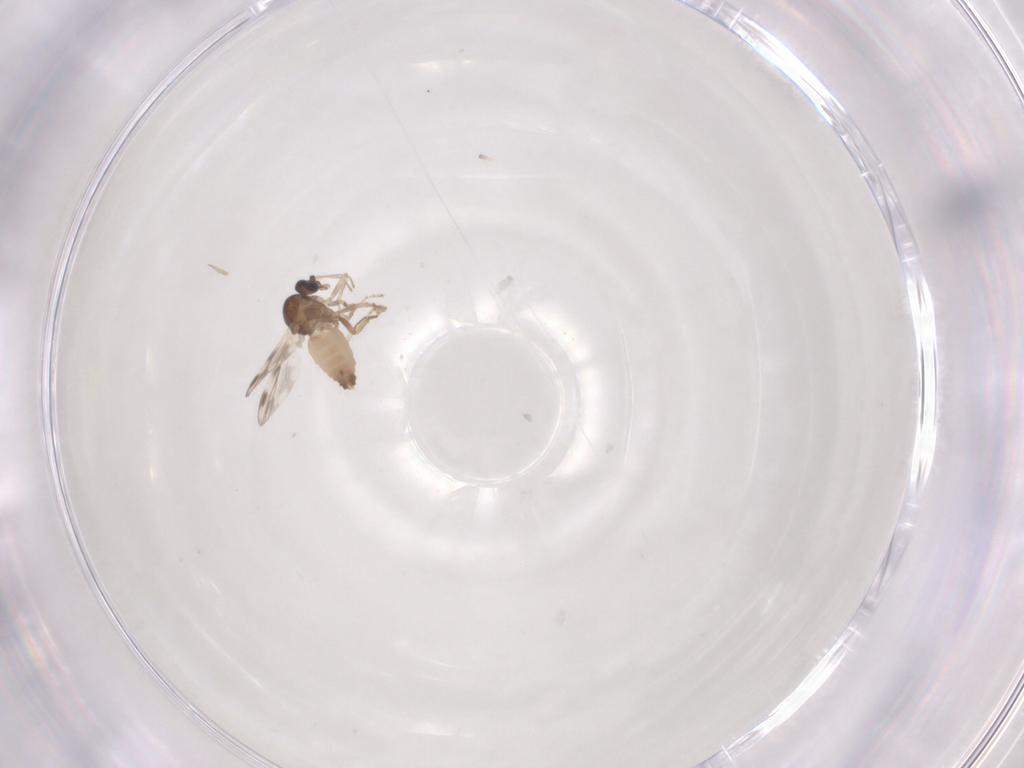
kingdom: Animalia
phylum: Arthropoda
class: Insecta
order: Diptera
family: Cecidomyiidae
